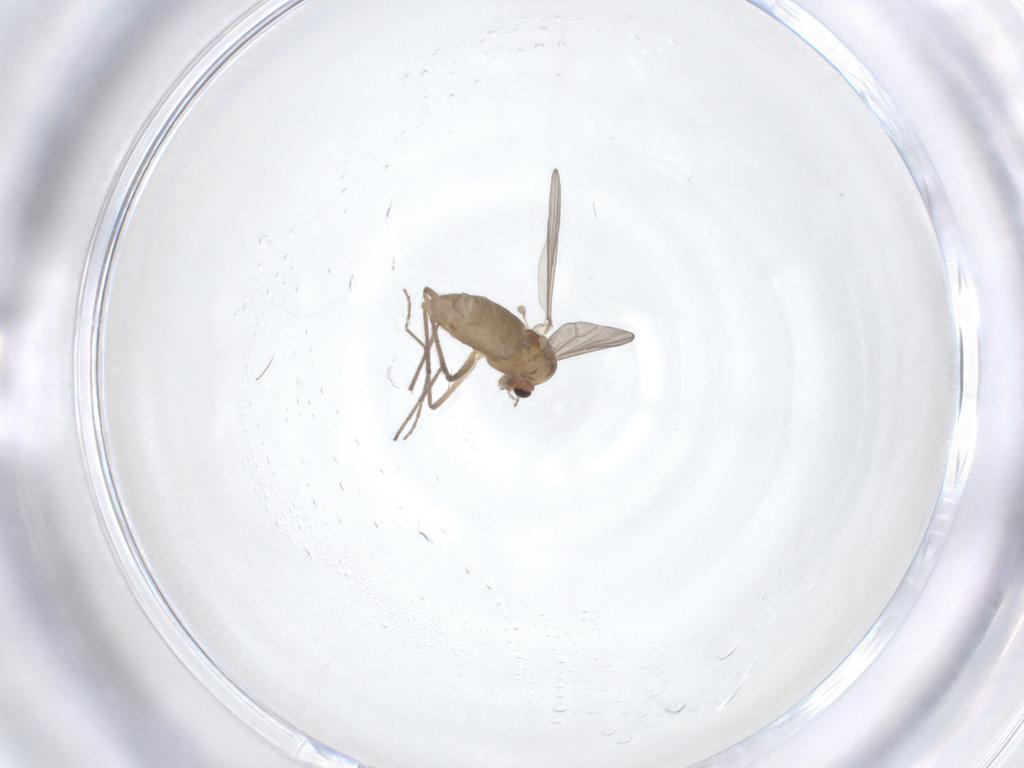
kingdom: Animalia
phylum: Arthropoda
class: Insecta
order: Diptera
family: Chironomidae
